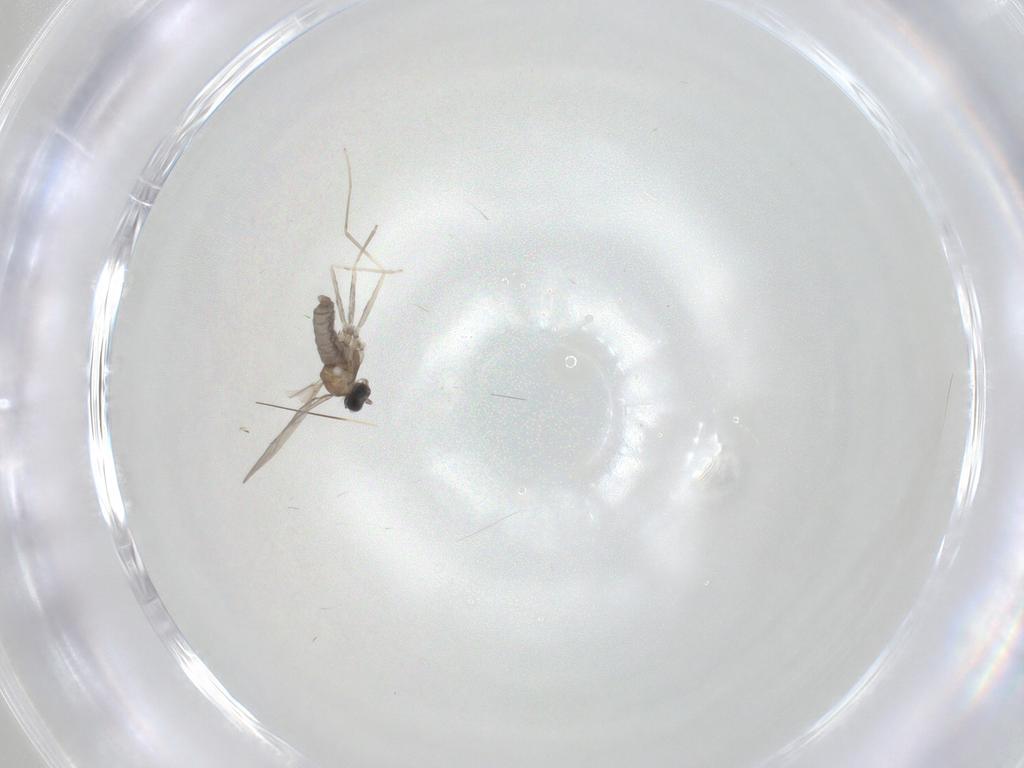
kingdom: Animalia
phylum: Arthropoda
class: Insecta
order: Diptera
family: Cecidomyiidae
